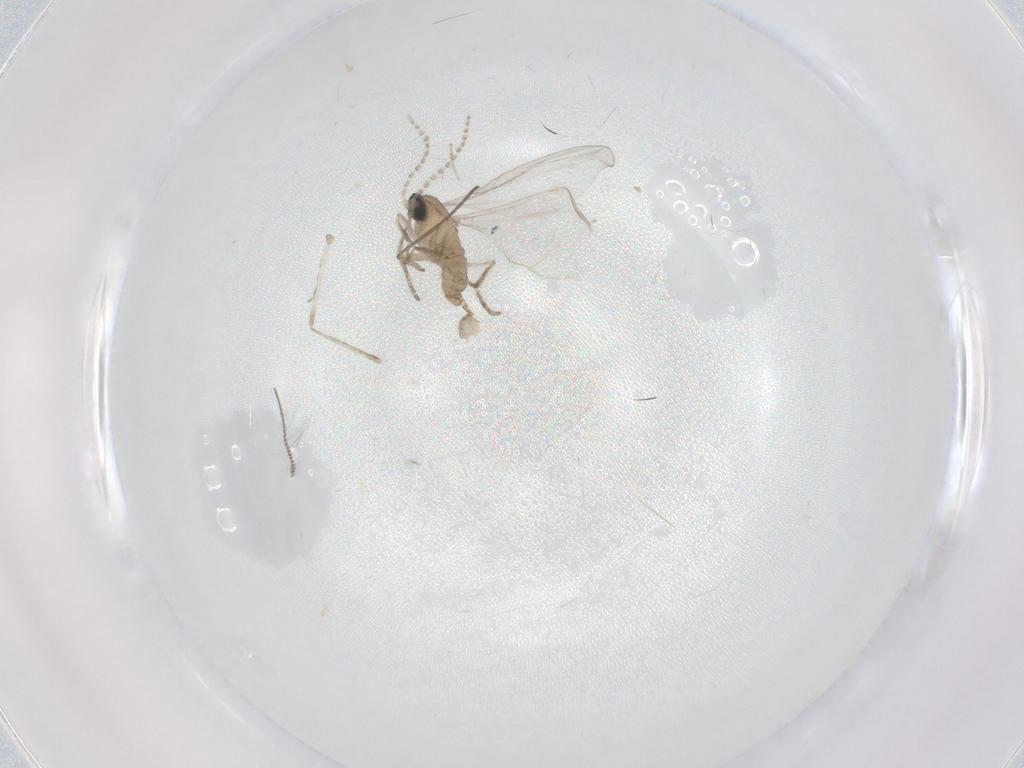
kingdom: Animalia
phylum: Arthropoda
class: Insecta
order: Diptera
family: Cecidomyiidae
